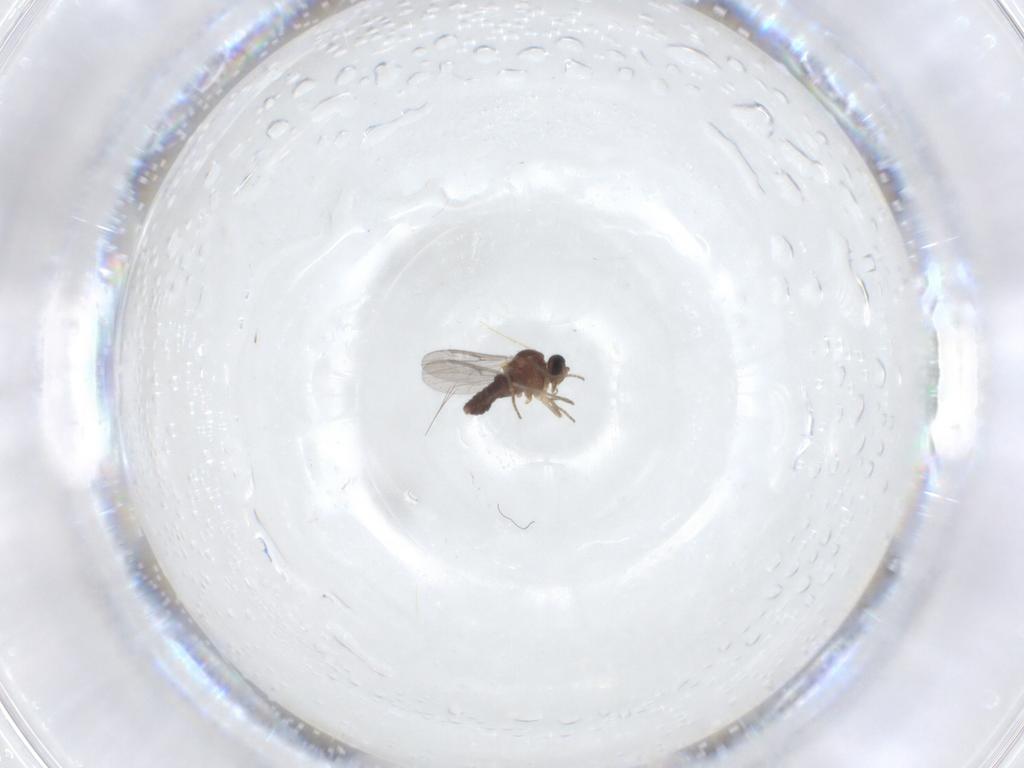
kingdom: Animalia
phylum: Arthropoda
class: Insecta
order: Diptera
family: Ceratopogonidae
